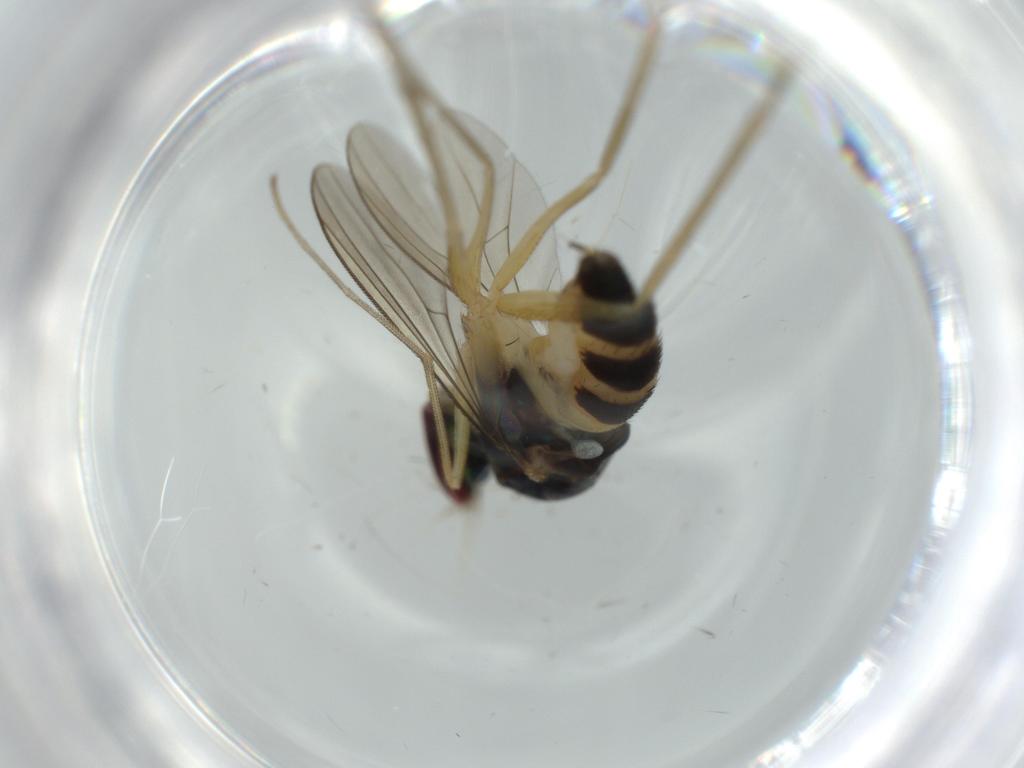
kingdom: Animalia
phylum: Arthropoda
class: Insecta
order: Diptera
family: Dolichopodidae
